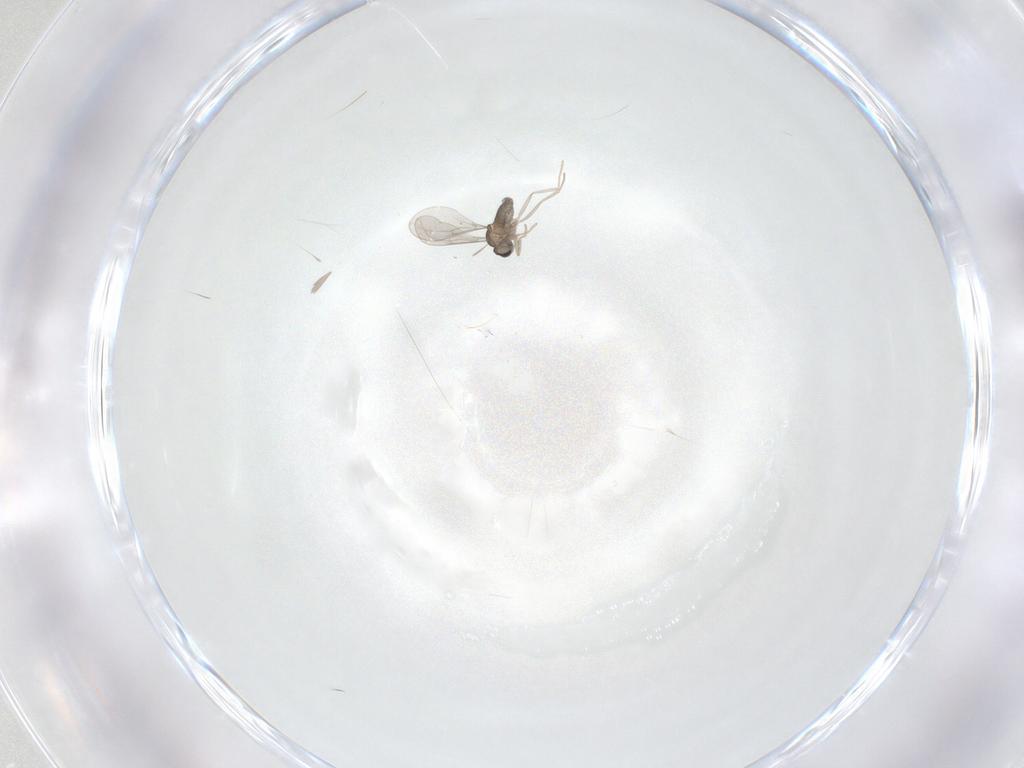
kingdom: Animalia
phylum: Arthropoda
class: Insecta
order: Diptera
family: Cecidomyiidae
